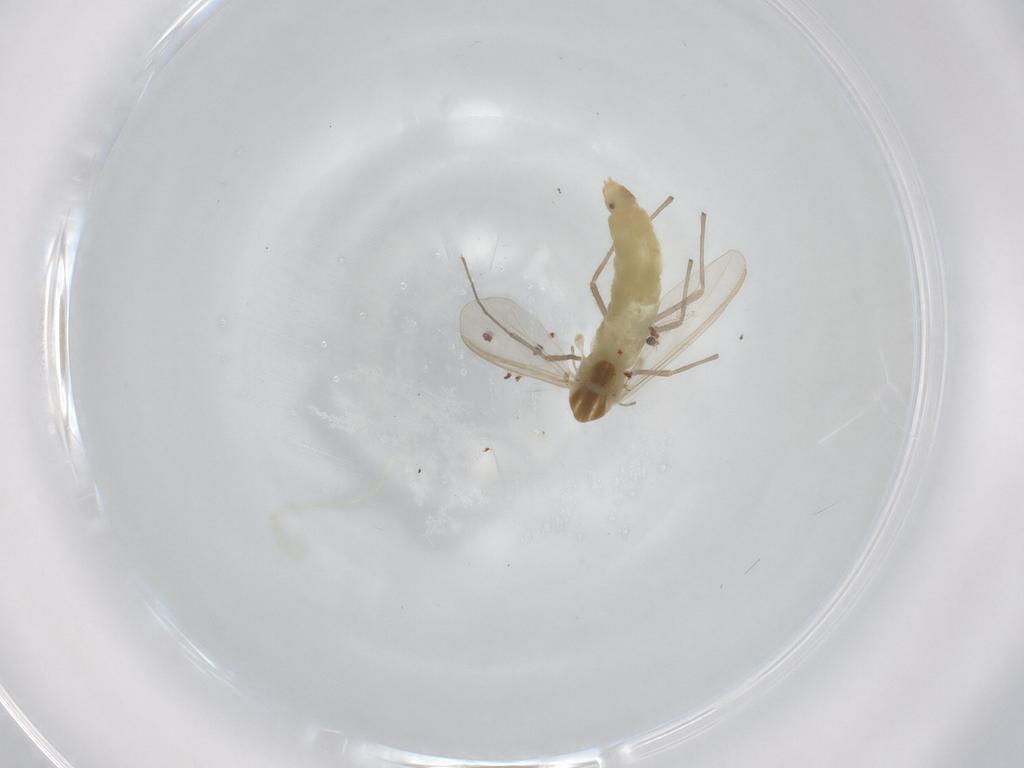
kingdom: Animalia
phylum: Arthropoda
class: Insecta
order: Diptera
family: Chironomidae
